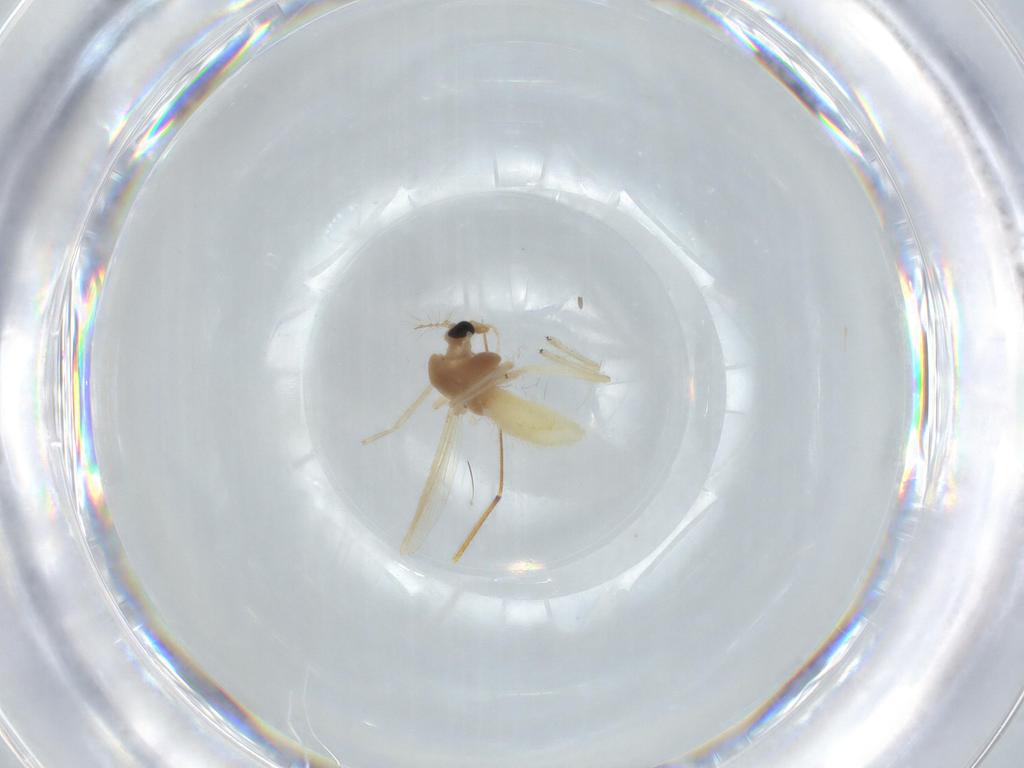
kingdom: Animalia
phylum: Arthropoda
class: Insecta
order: Diptera
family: Chironomidae
